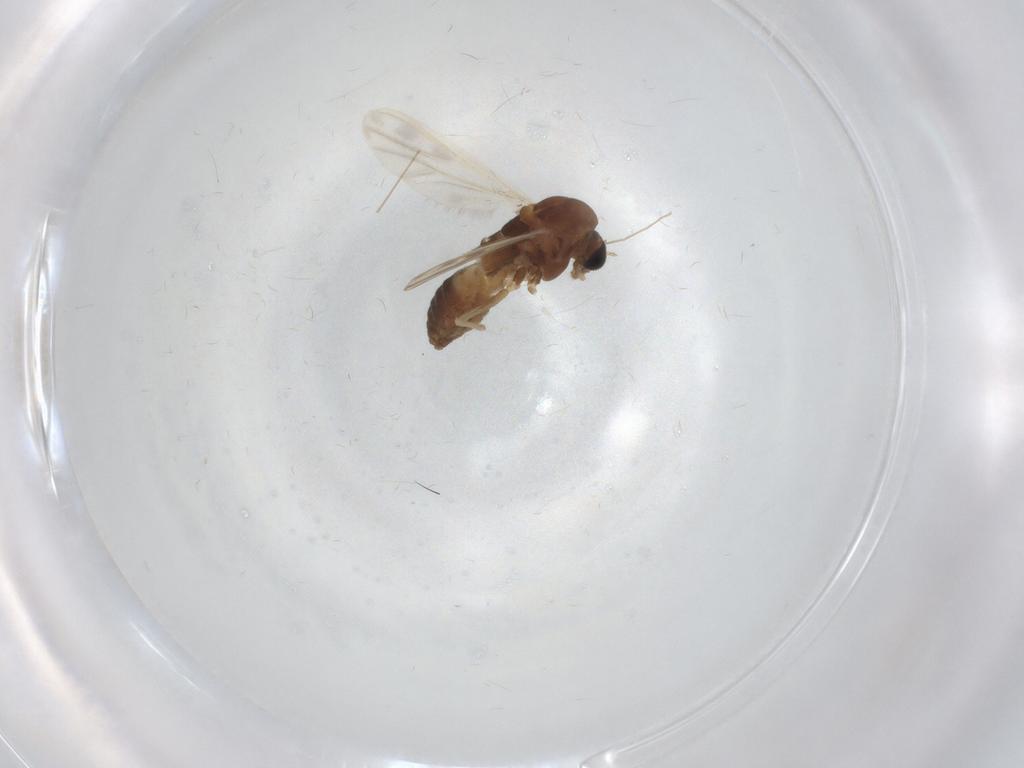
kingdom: Animalia
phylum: Arthropoda
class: Insecta
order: Diptera
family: Chironomidae
